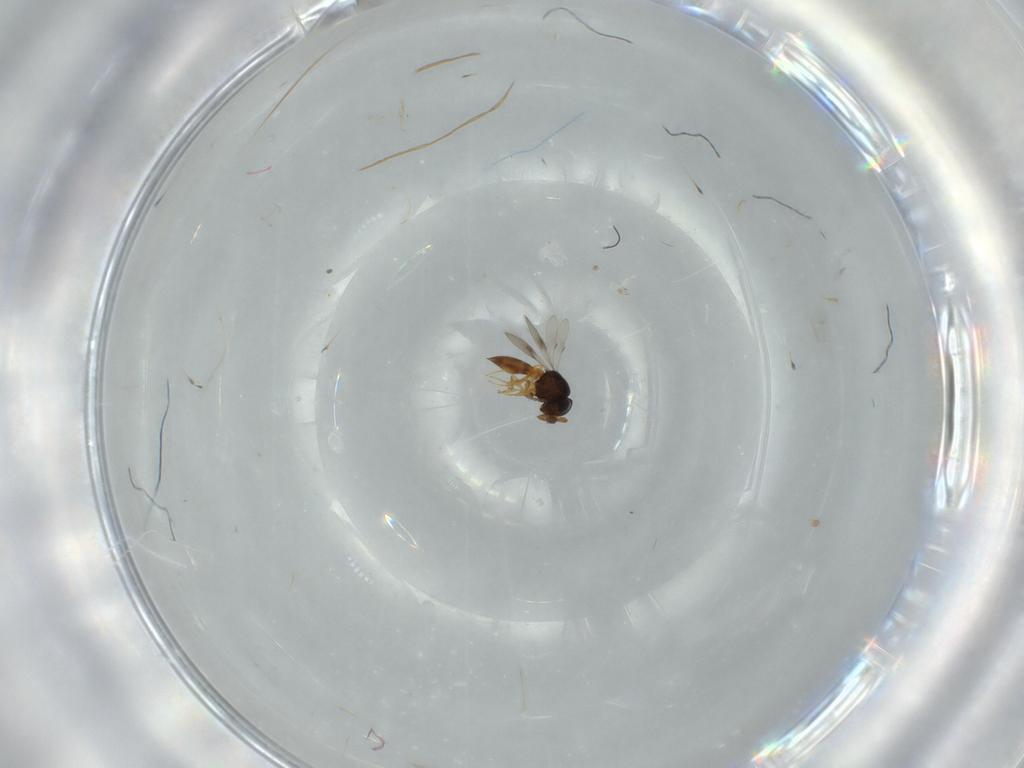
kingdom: Animalia
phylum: Arthropoda
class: Insecta
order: Hymenoptera
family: Scelionidae
